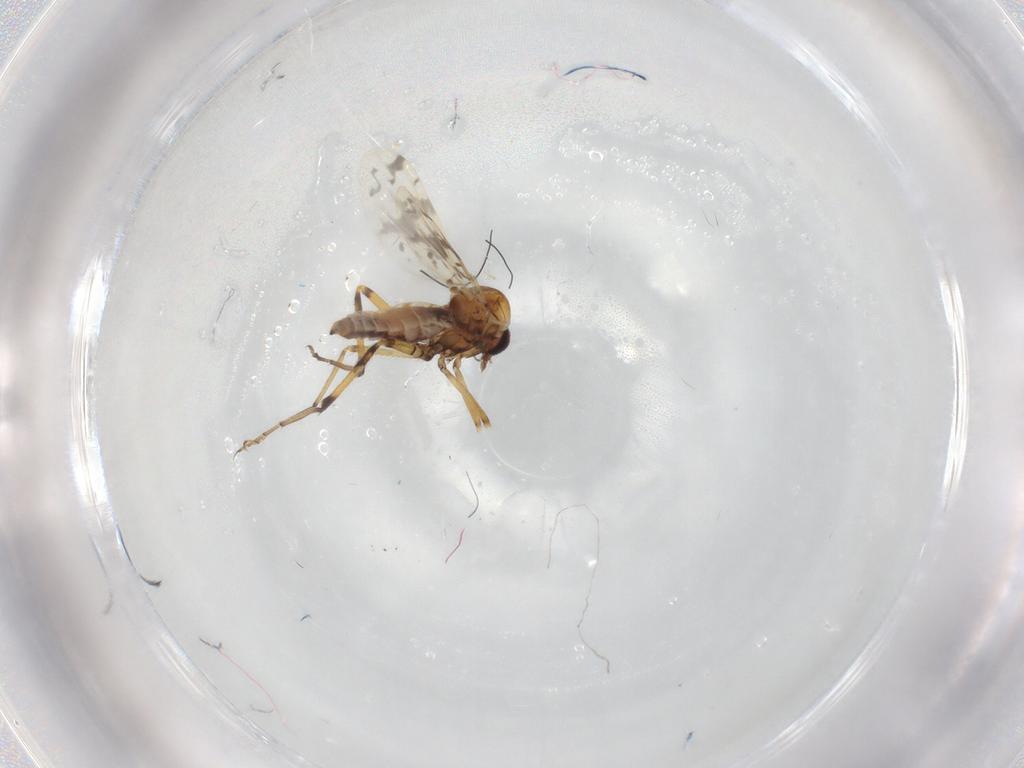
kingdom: Animalia
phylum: Arthropoda
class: Insecta
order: Diptera
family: Ceratopogonidae
